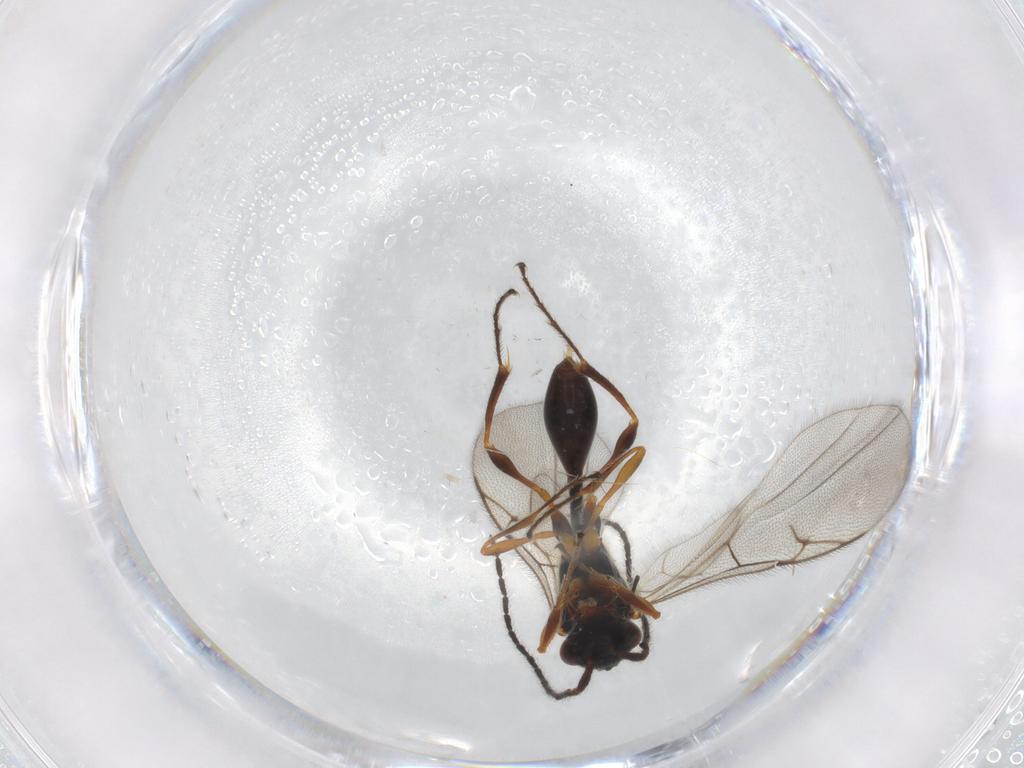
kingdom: Animalia
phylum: Arthropoda
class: Insecta
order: Hymenoptera
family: Diapriidae
